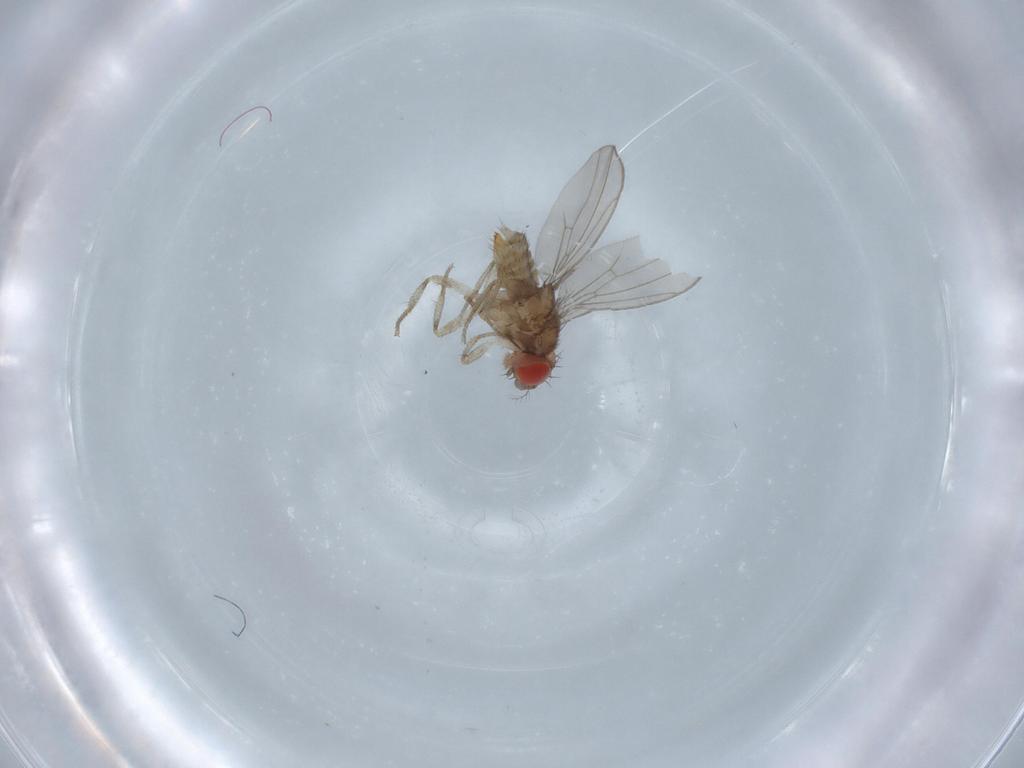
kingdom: Animalia
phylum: Arthropoda
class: Insecta
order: Diptera
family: Drosophilidae
